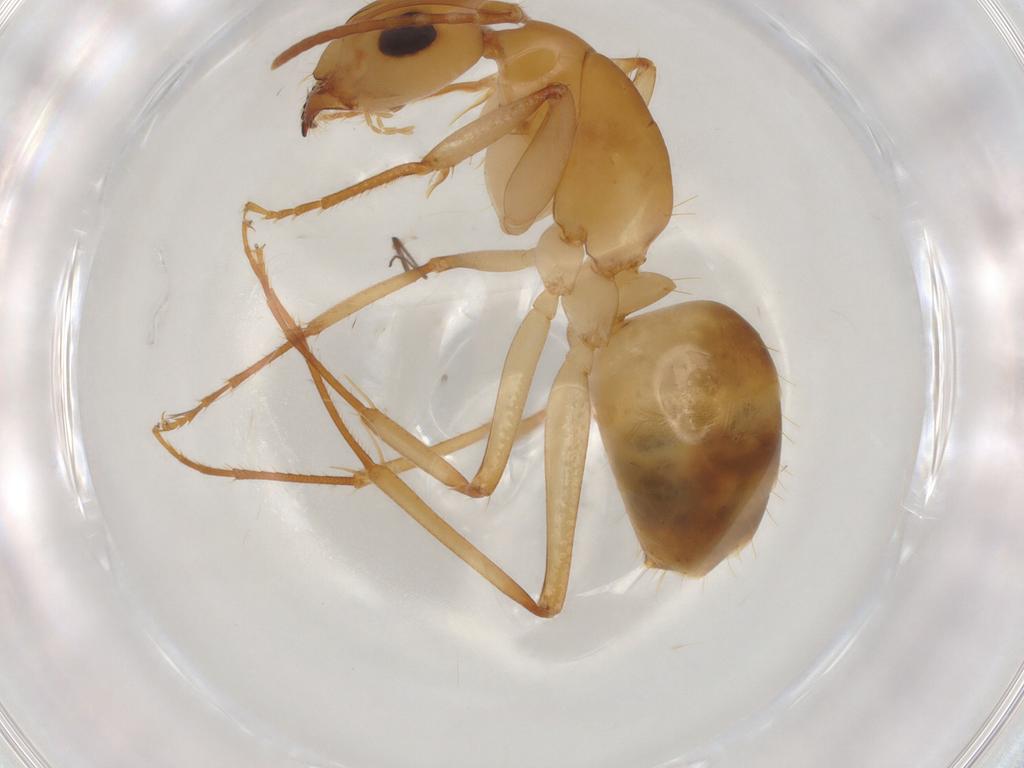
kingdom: Animalia
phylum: Arthropoda
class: Insecta
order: Hymenoptera
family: Formicidae
